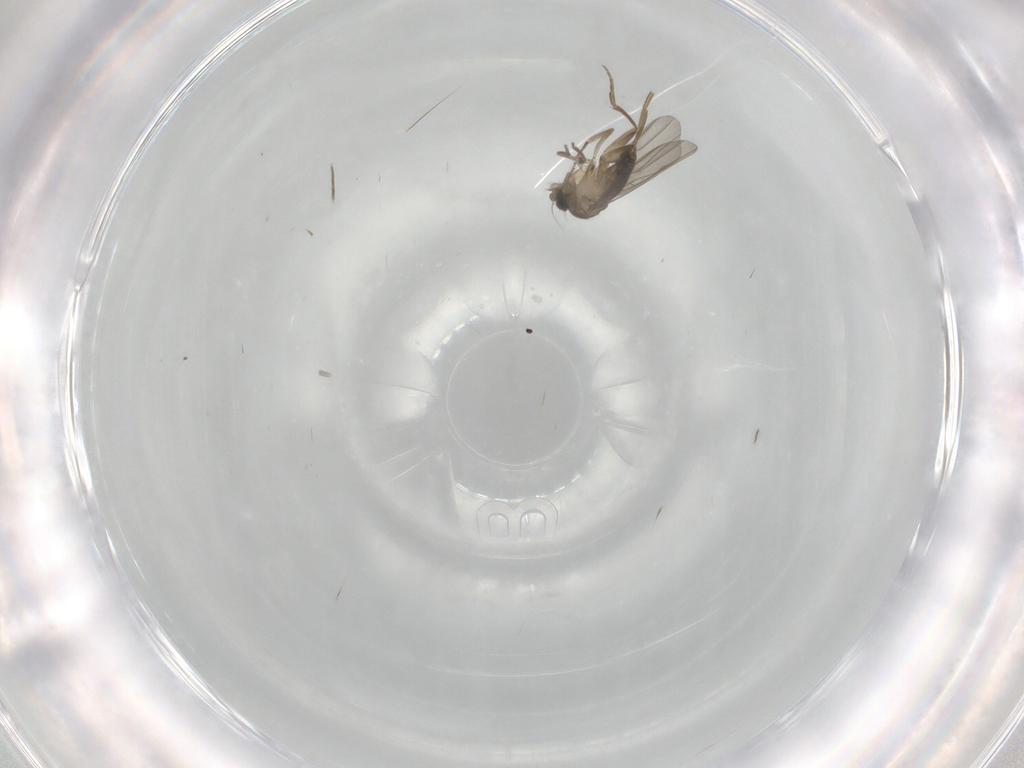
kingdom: Animalia
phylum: Arthropoda
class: Insecta
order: Diptera
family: Phoridae
